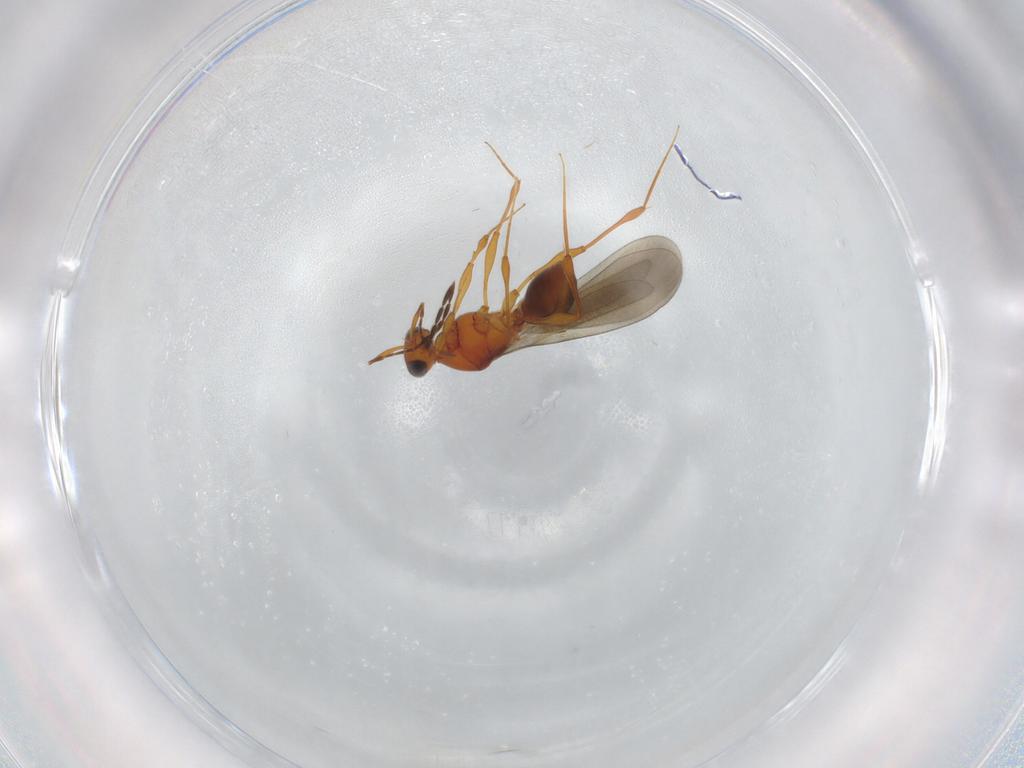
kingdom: Animalia
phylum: Arthropoda
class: Insecta
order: Hymenoptera
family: Platygastridae
